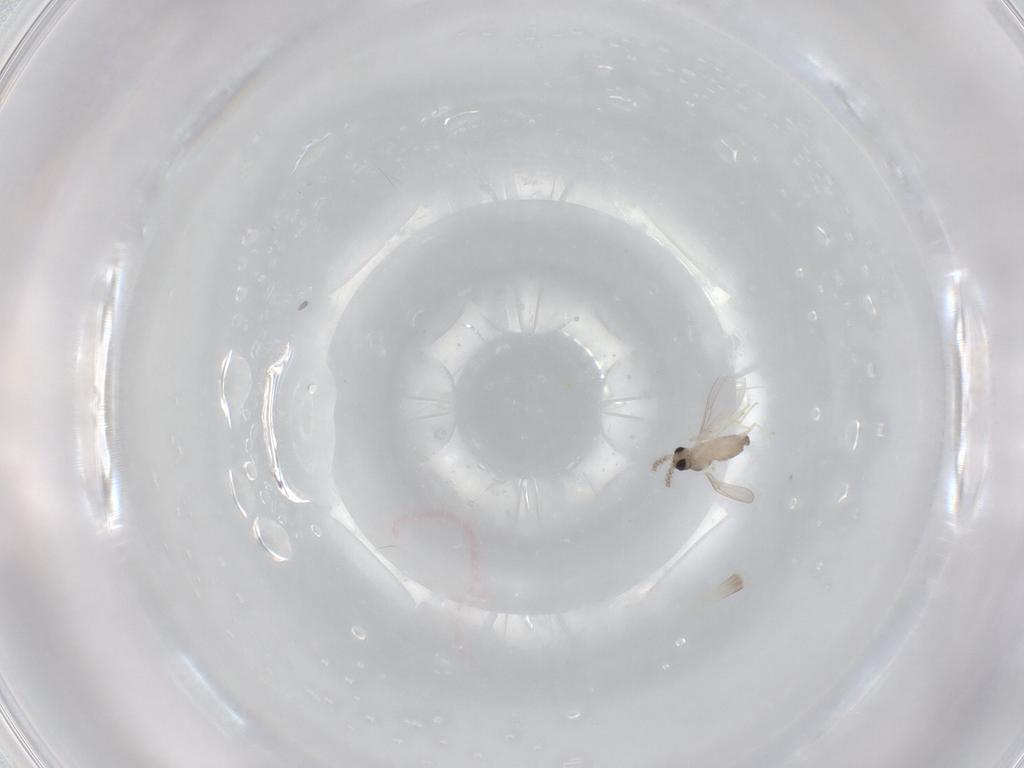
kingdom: Animalia
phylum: Arthropoda
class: Insecta
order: Diptera
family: Cecidomyiidae
